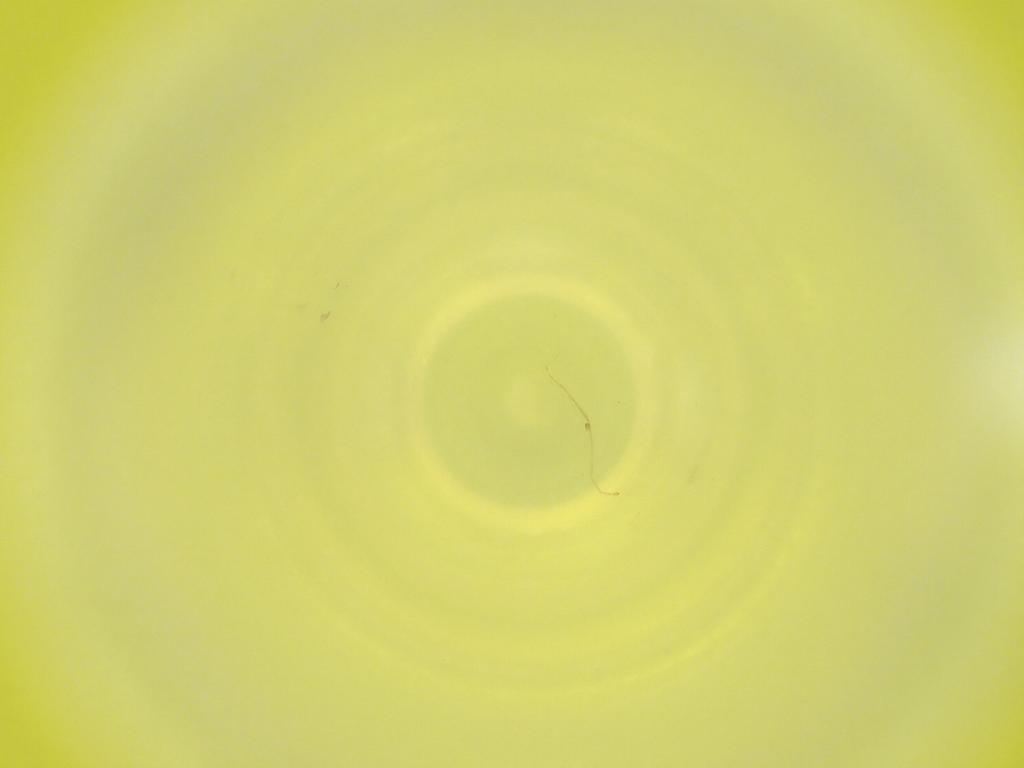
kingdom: Animalia
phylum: Arthropoda
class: Insecta
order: Diptera
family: Cecidomyiidae
